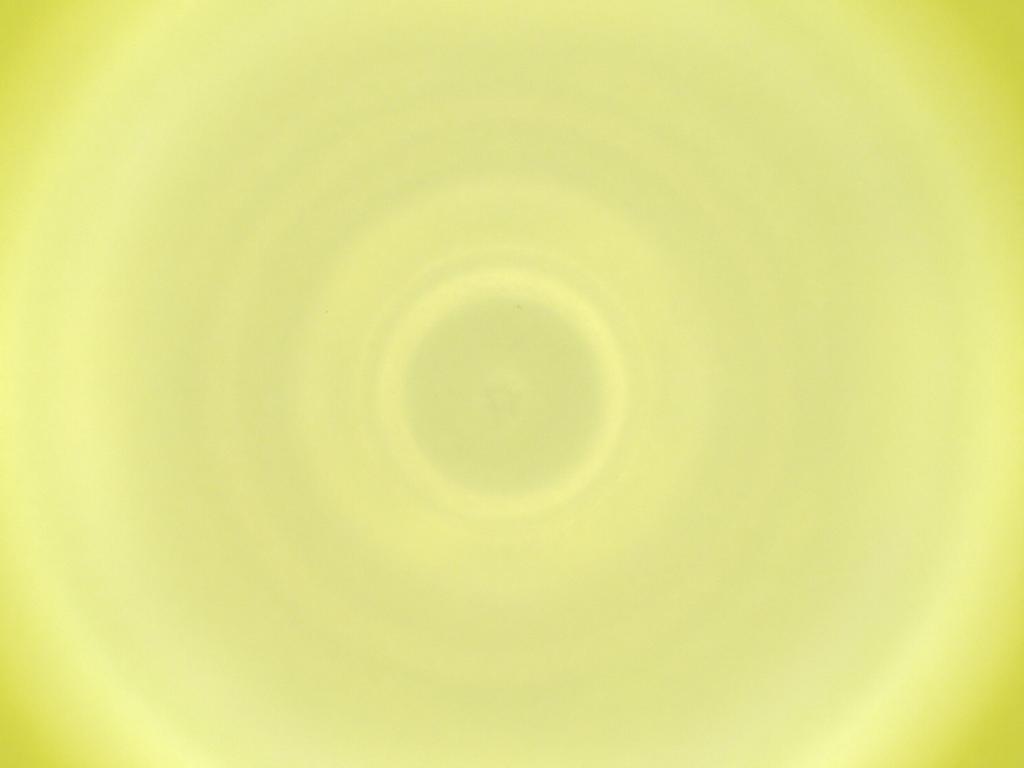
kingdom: Animalia
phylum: Arthropoda
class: Insecta
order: Diptera
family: Cecidomyiidae
